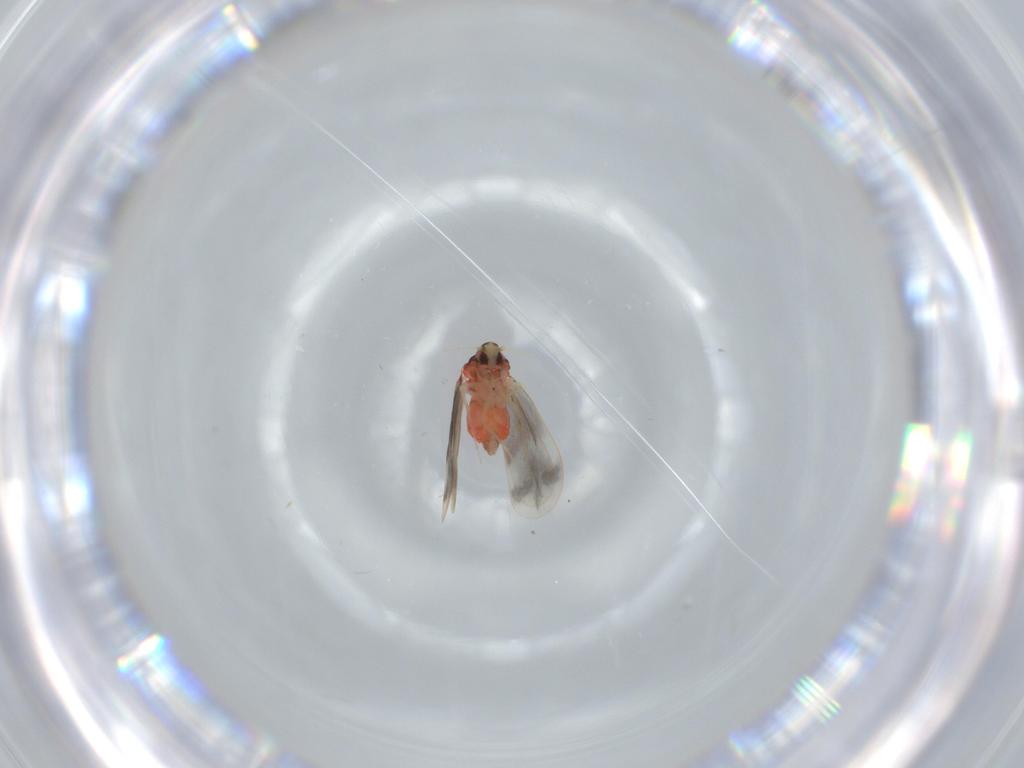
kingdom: Animalia
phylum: Arthropoda
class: Insecta
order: Hemiptera
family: Aleyrodidae
